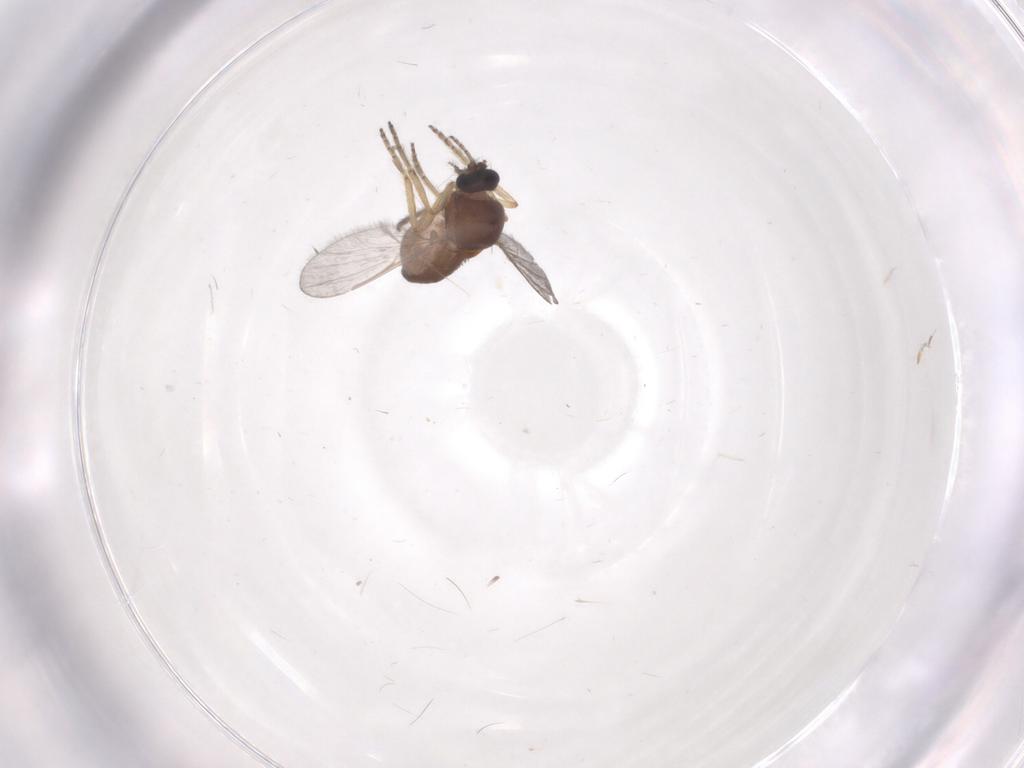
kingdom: Animalia
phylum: Arthropoda
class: Insecta
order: Diptera
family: Ceratopogonidae
